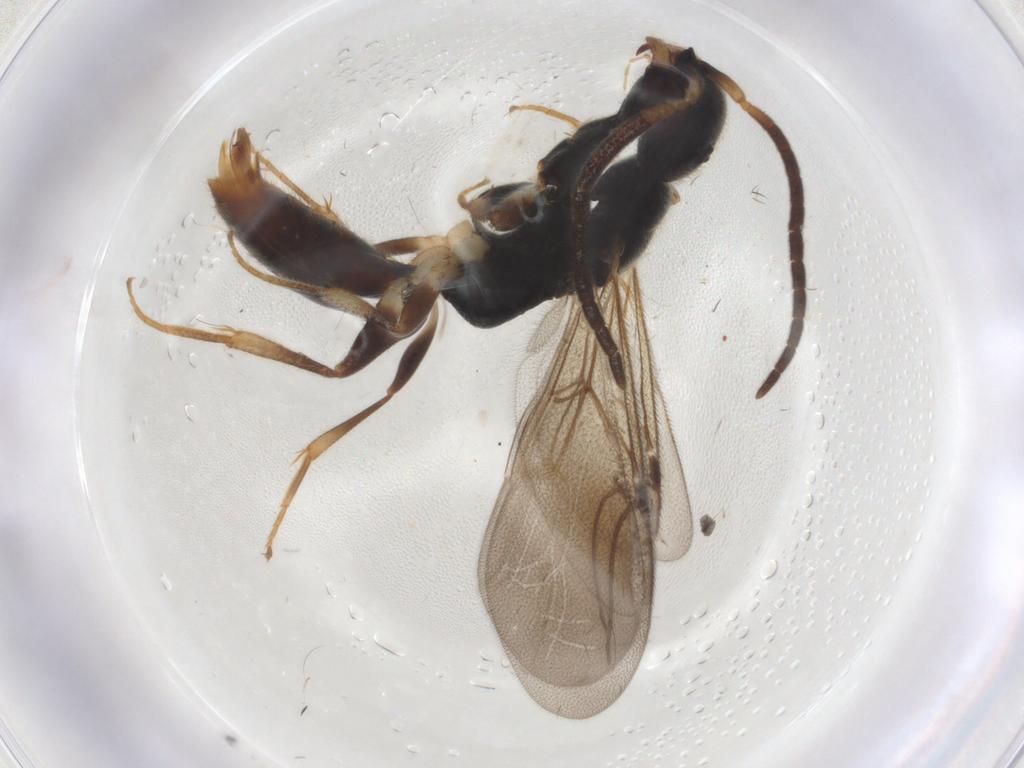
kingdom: Animalia
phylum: Arthropoda
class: Insecta
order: Hymenoptera
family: Bethylidae
